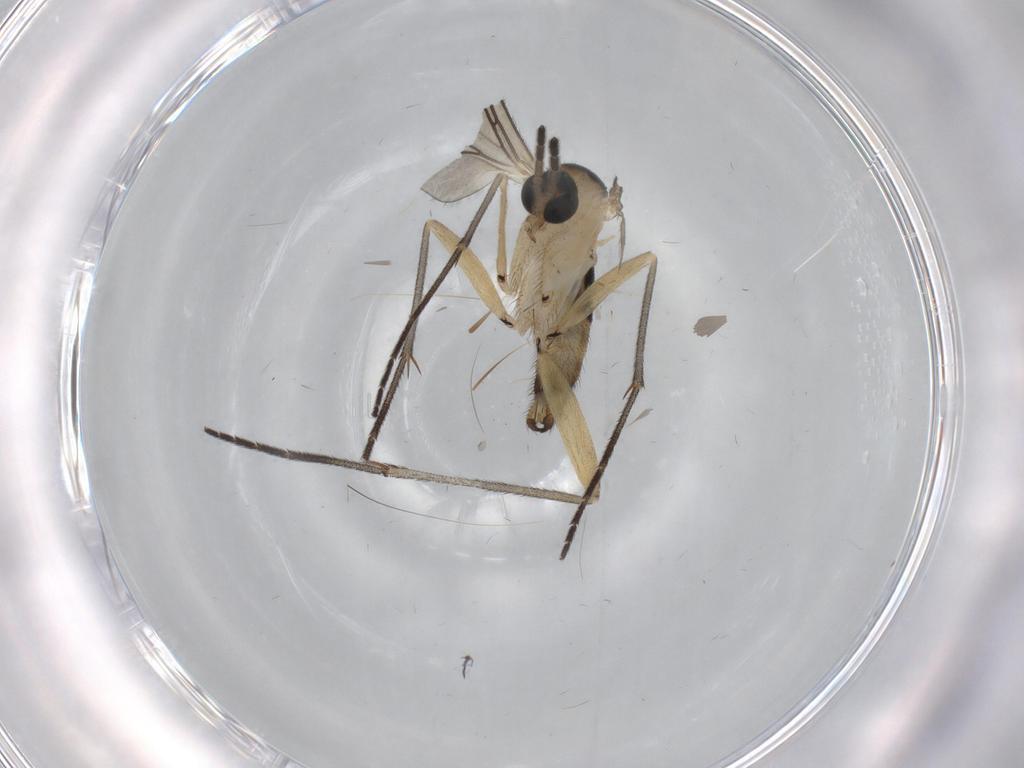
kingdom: Animalia
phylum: Arthropoda
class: Insecta
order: Diptera
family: Sciaridae
